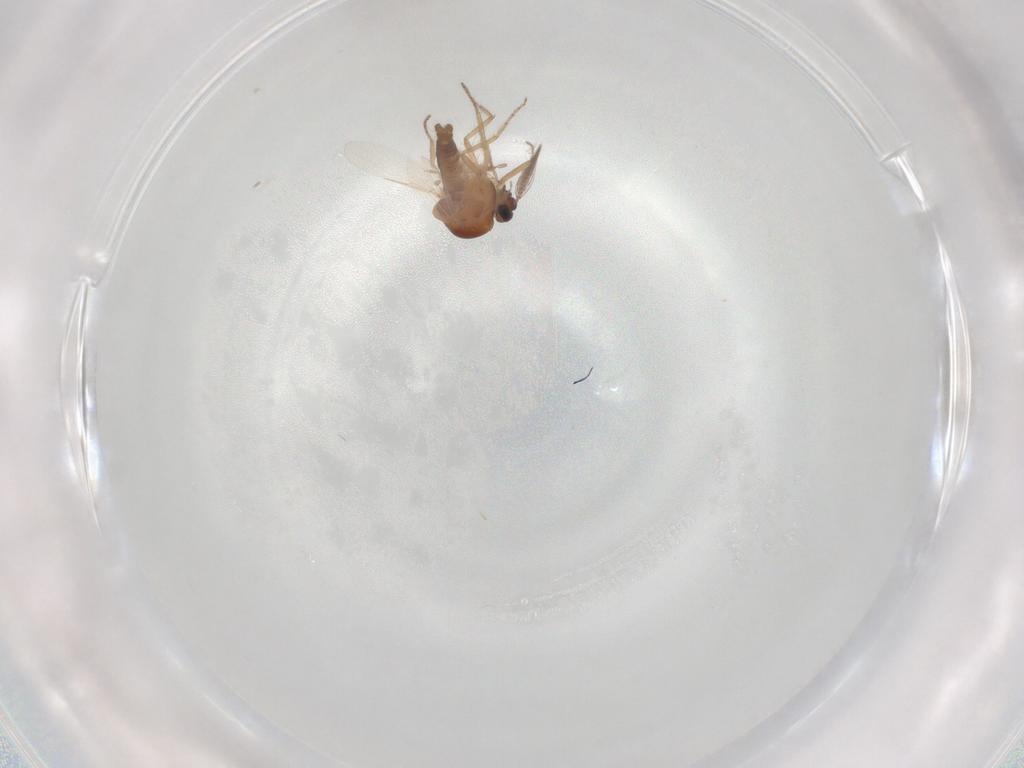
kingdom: Animalia
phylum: Arthropoda
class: Insecta
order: Diptera
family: Ceratopogonidae
